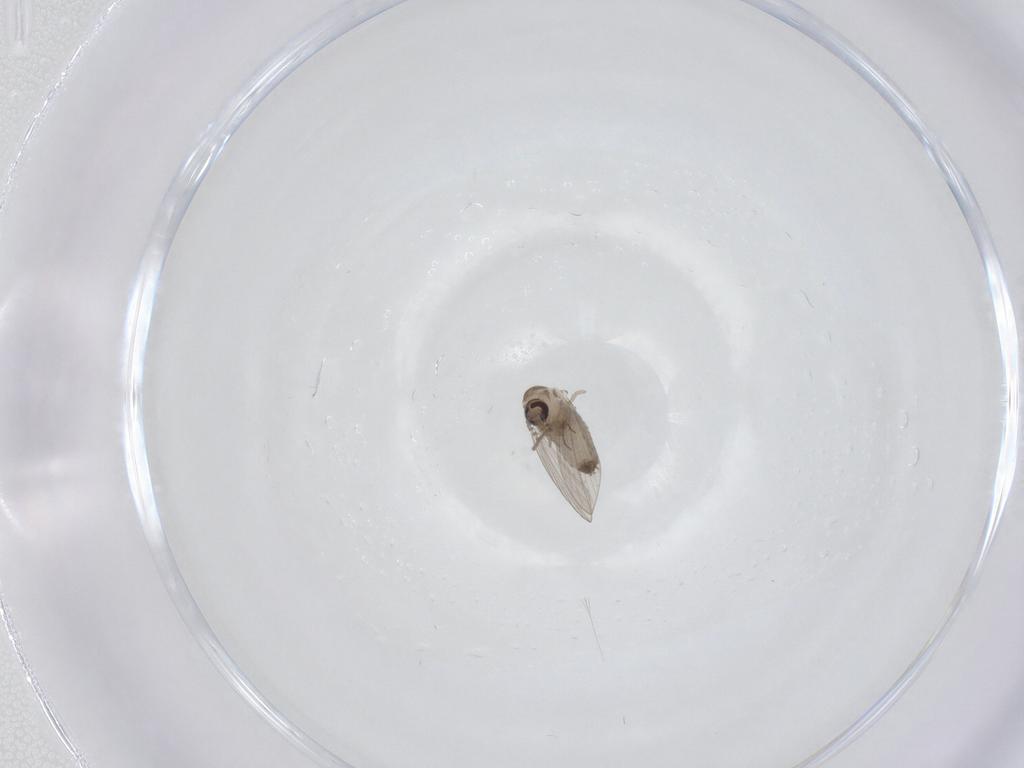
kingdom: Animalia
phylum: Arthropoda
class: Insecta
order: Diptera
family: Psychodidae
